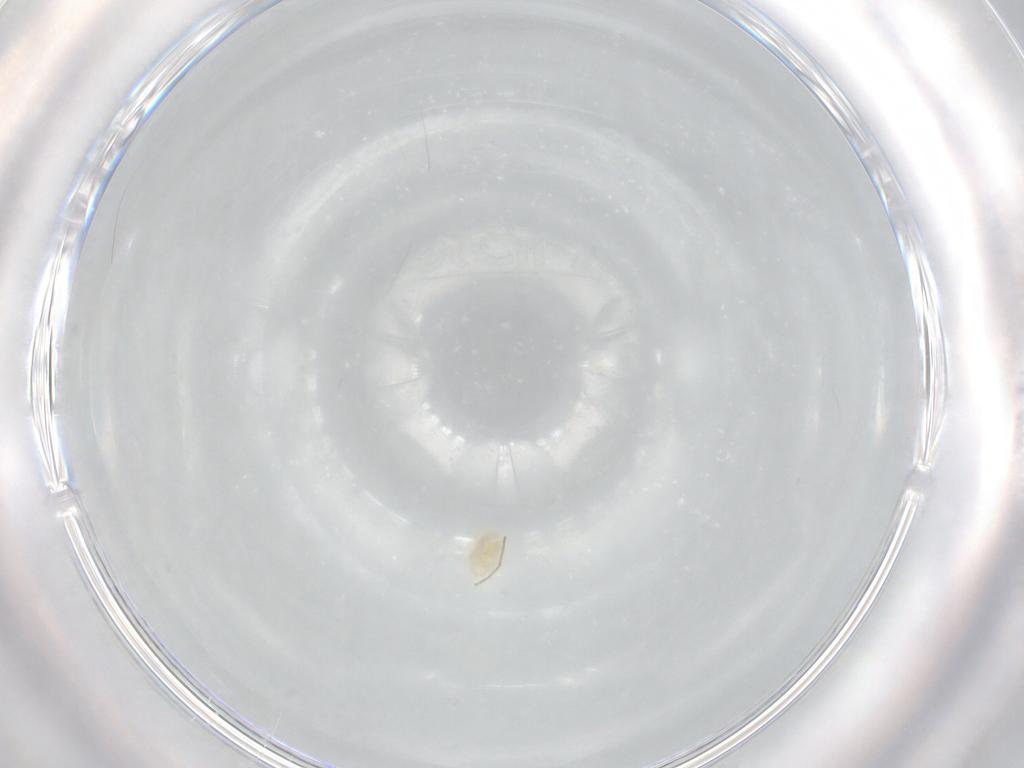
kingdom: Animalia
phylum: Arthropoda
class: Arachnida
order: Trombidiformes
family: Eupodidae
